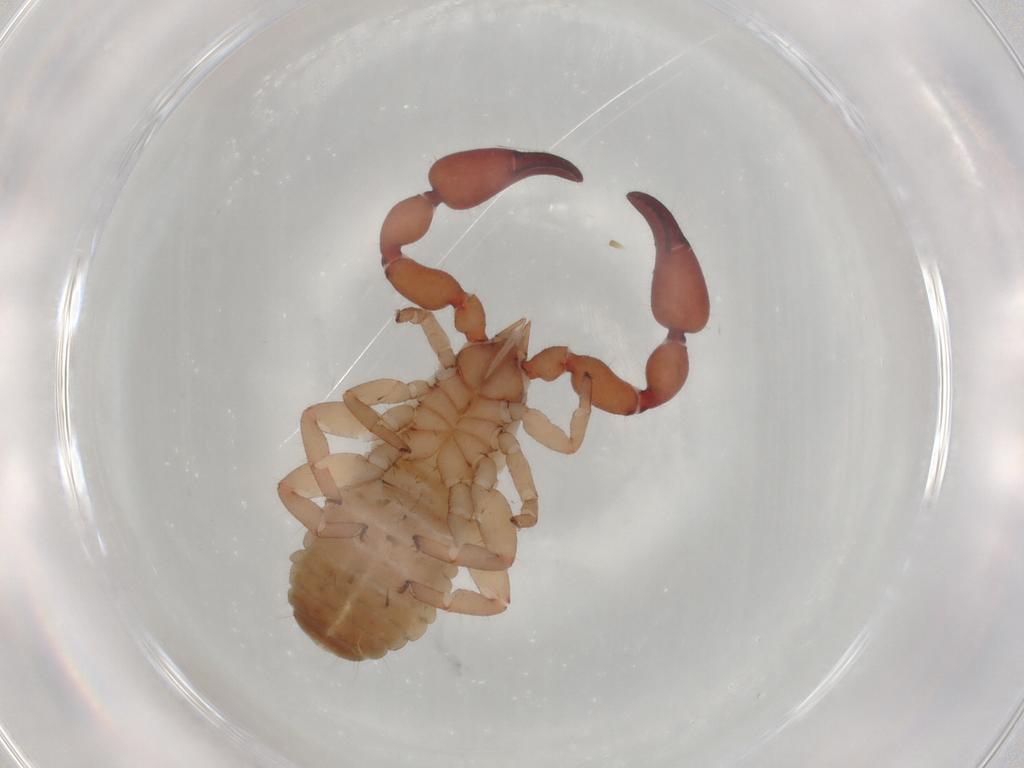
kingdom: Animalia
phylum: Arthropoda
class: Arachnida
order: Pseudoscorpiones
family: Atemnidae
